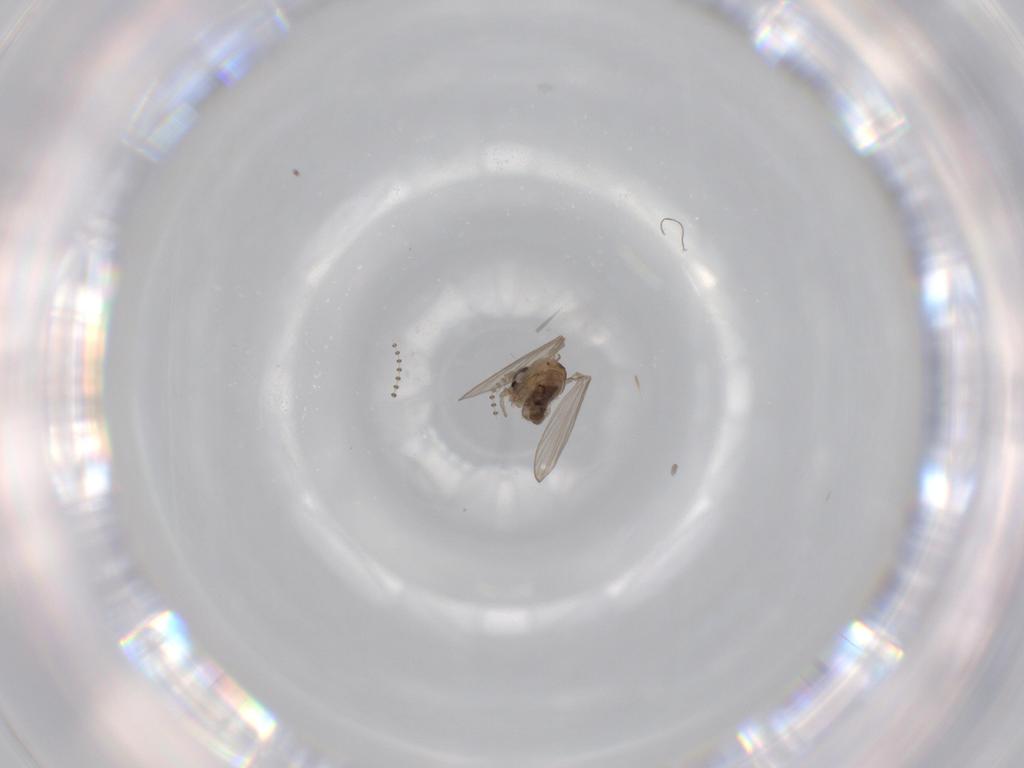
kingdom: Animalia
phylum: Arthropoda
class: Insecta
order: Diptera
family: Psychodidae
